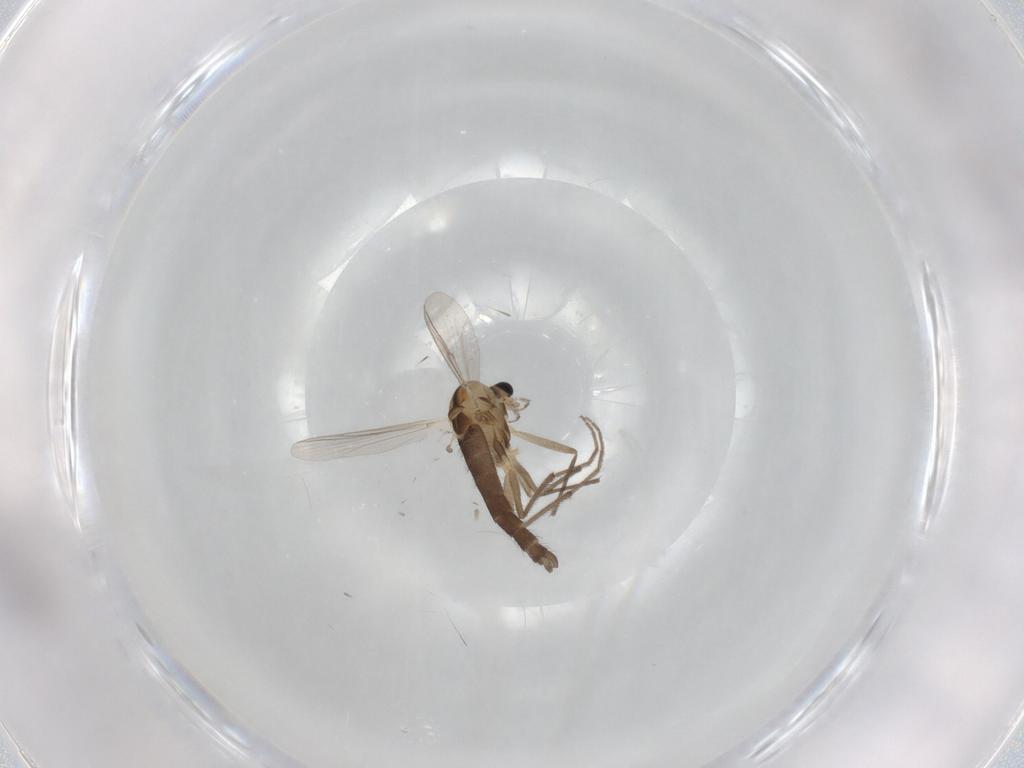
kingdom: Animalia
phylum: Arthropoda
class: Insecta
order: Diptera
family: Chironomidae
